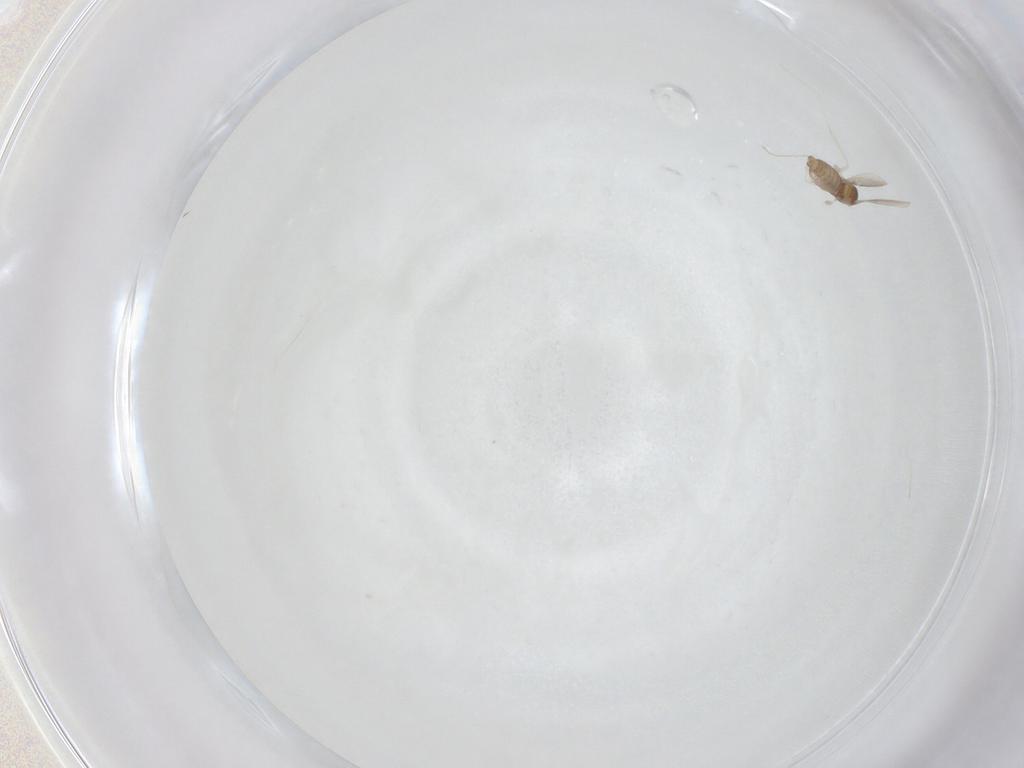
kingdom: Animalia
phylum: Arthropoda
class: Insecta
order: Diptera
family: Cecidomyiidae
